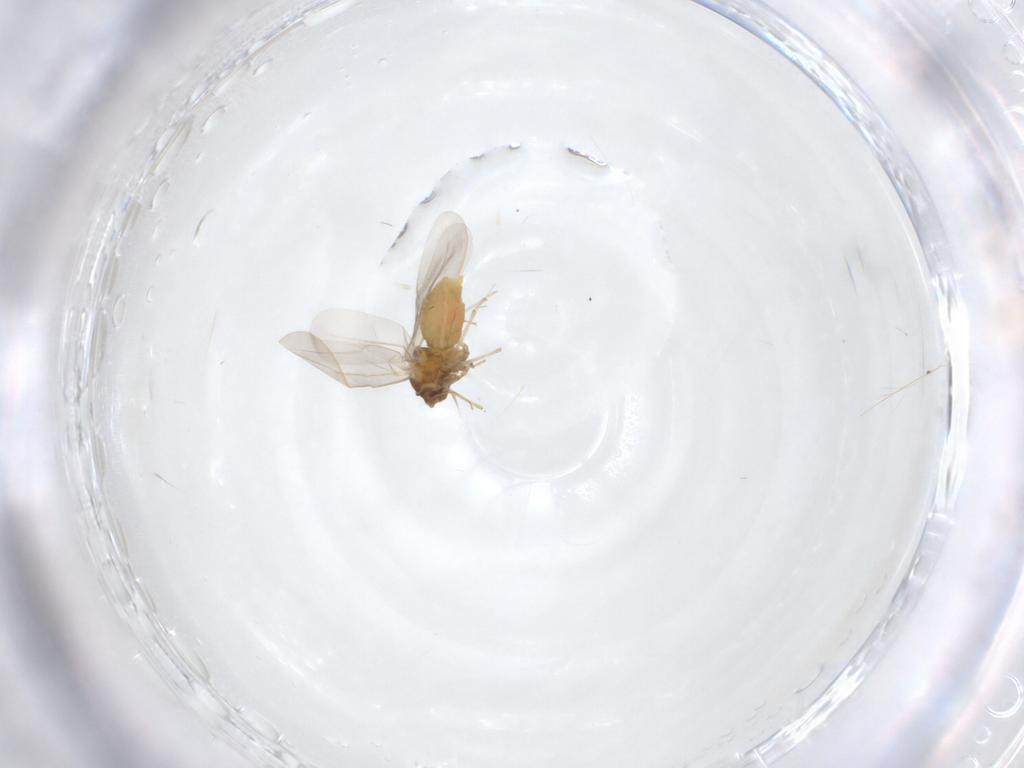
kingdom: Animalia
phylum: Arthropoda
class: Insecta
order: Hemiptera
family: Aleyrodidae
